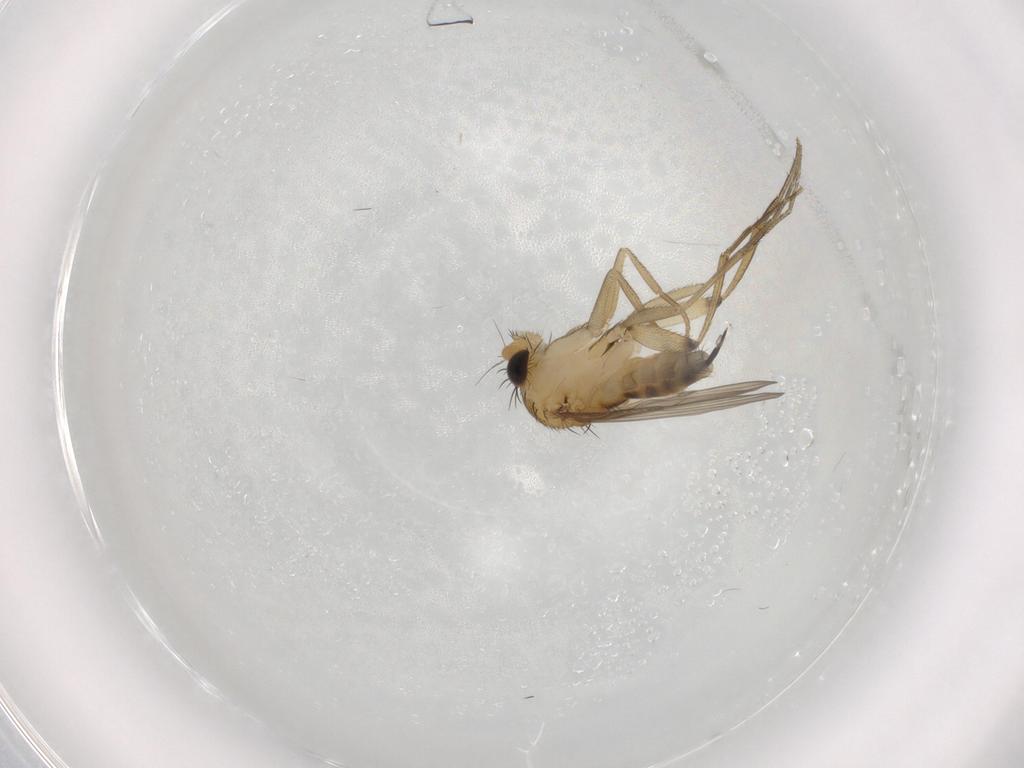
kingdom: Animalia
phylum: Arthropoda
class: Insecta
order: Diptera
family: Phoridae
